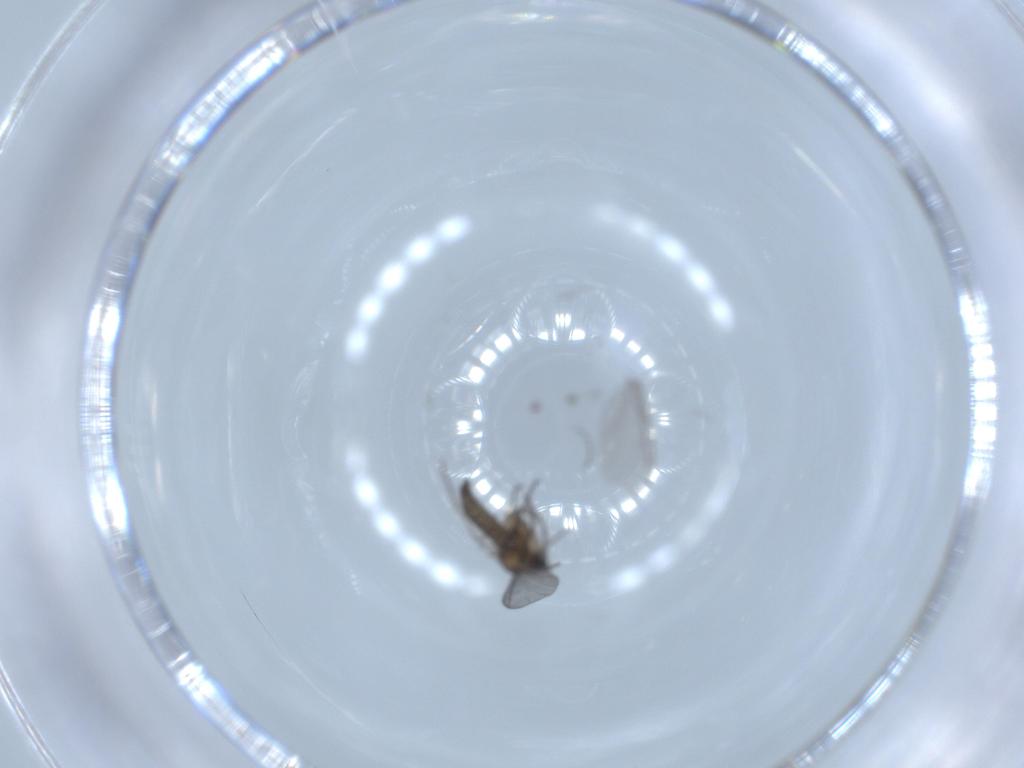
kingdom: Animalia
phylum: Arthropoda
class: Insecta
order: Diptera
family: Chironomidae
